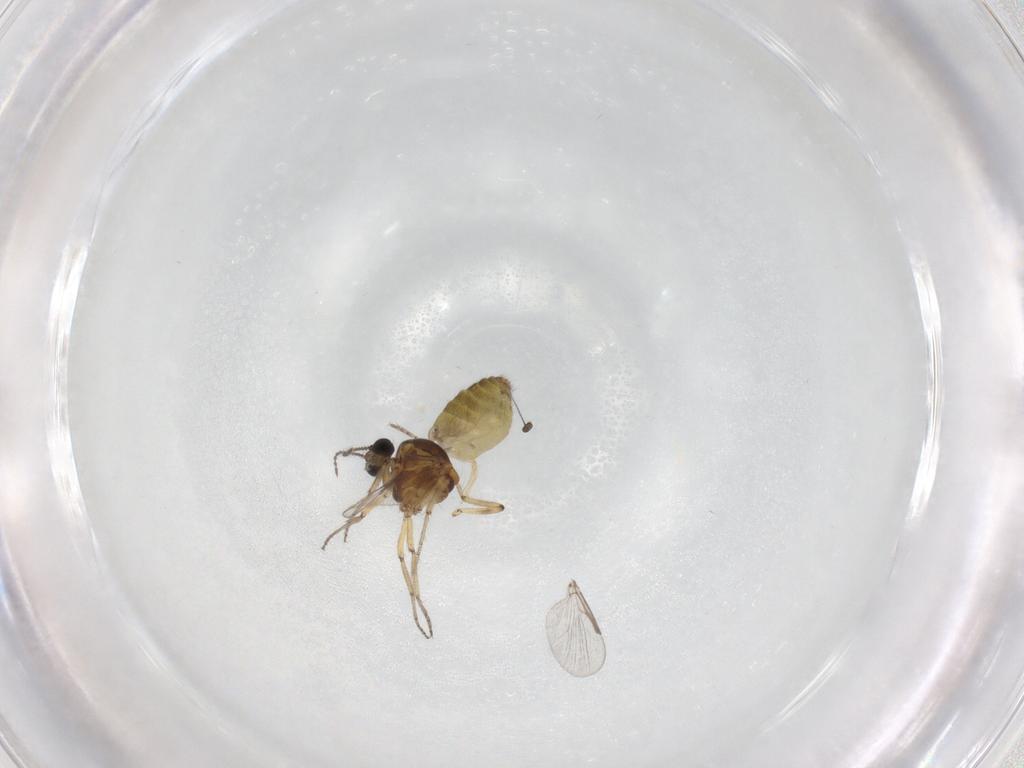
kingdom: Animalia
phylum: Arthropoda
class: Insecta
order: Diptera
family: Ceratopogonidae
